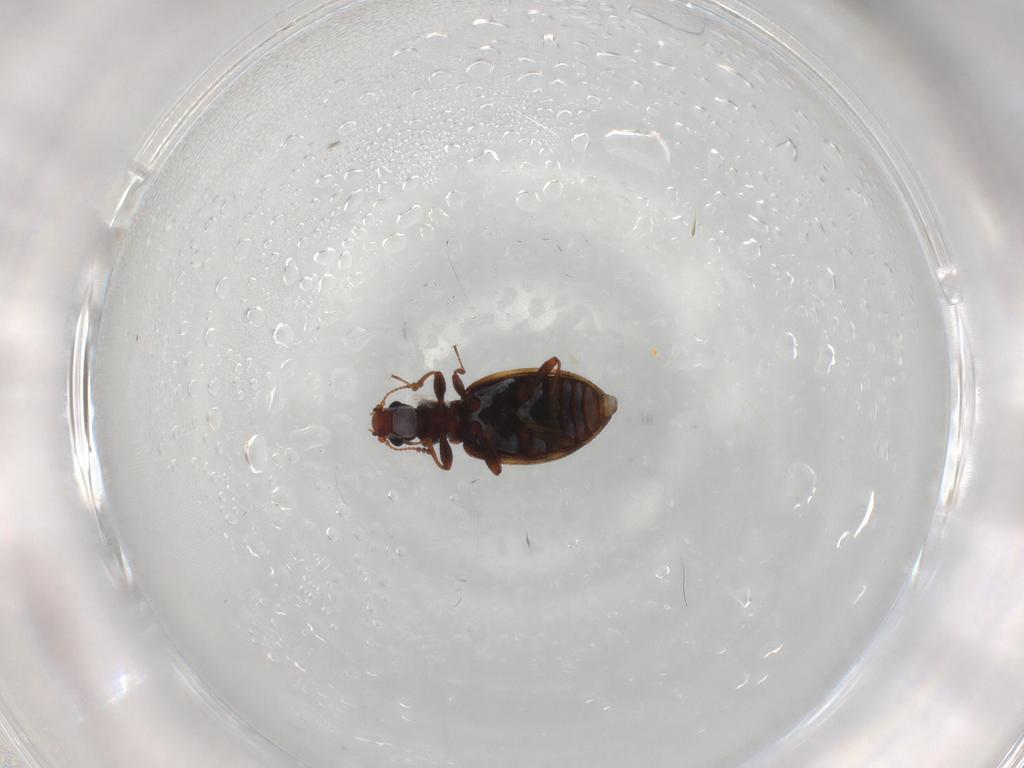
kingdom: Animalia
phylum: Arthropoda
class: Insecta
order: Coleoptera
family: Latridiidae
